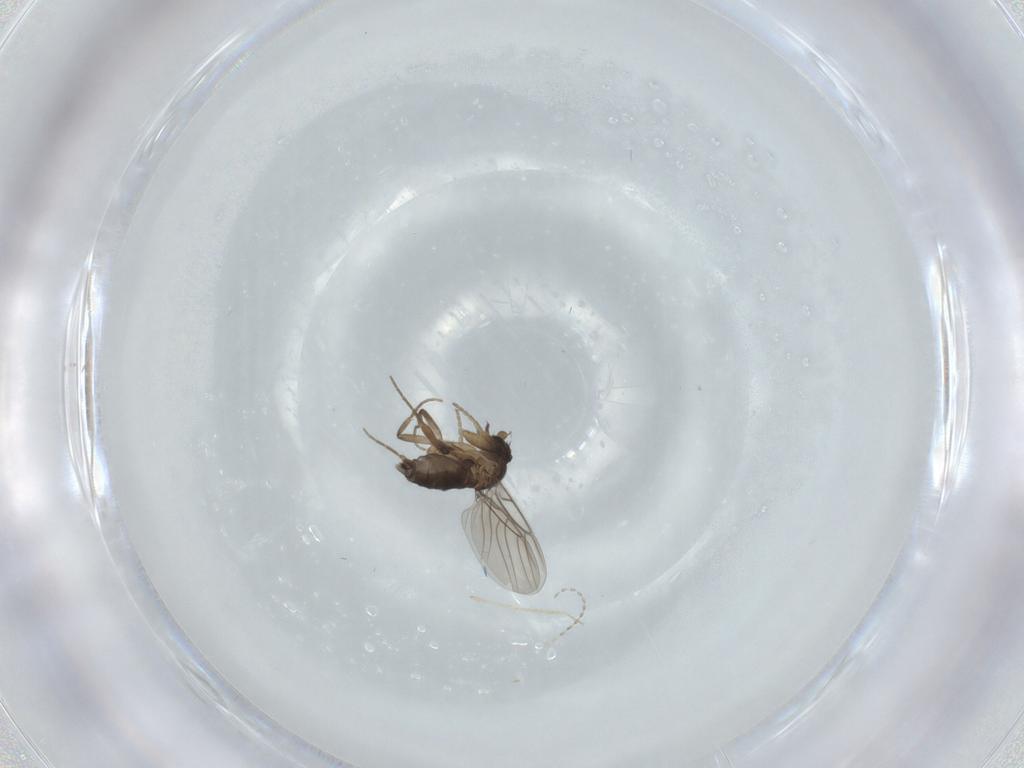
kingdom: Animalia
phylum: Arthropoda
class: Insecta
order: Diptera
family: Phoridae
